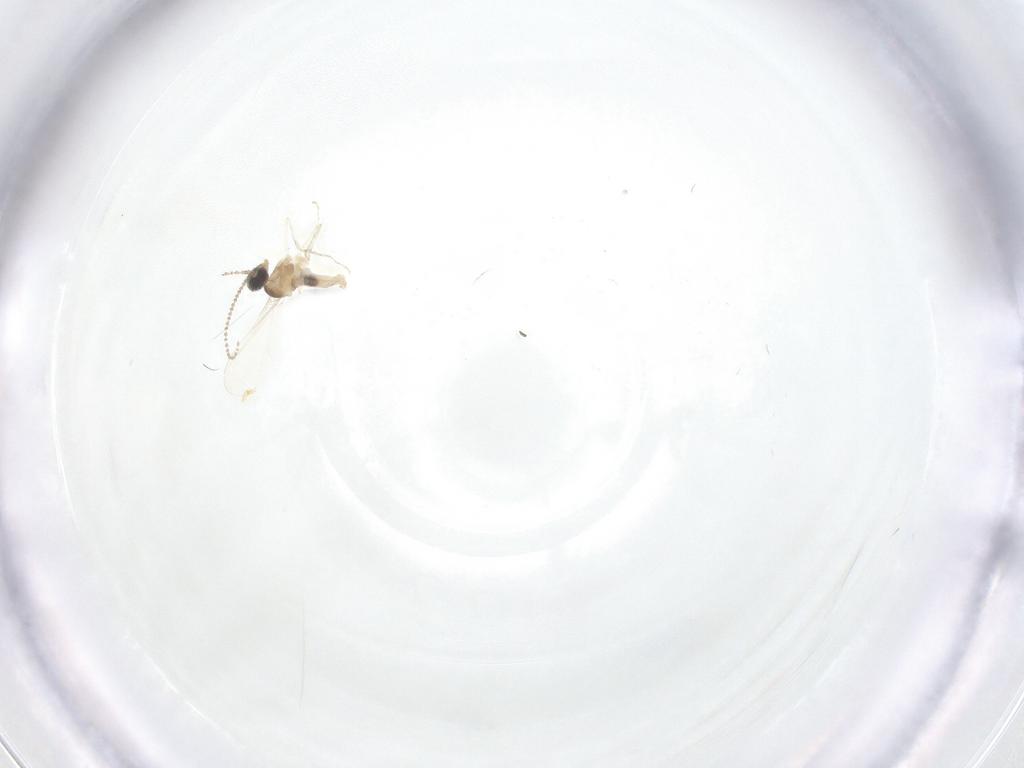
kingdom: Animalia
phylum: Arthropoda
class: Insecta
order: Diptera
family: Cecidomyiidae
